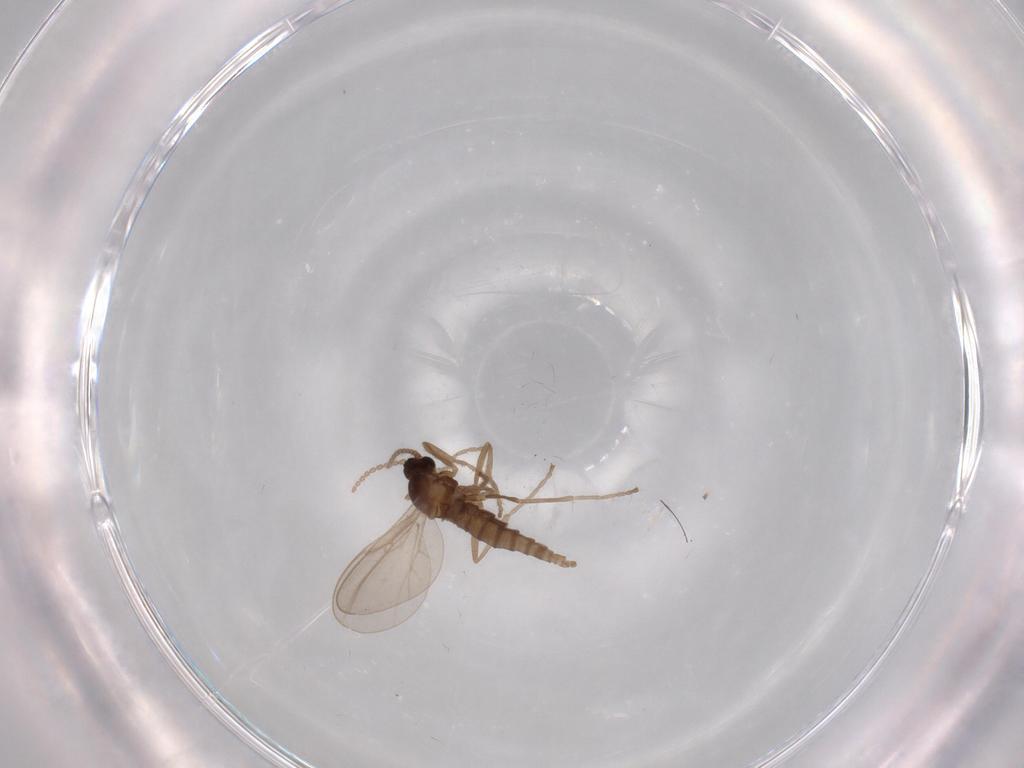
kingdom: Animalia
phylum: Arthropoda
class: Insecta
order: Diptera
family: Cecidomyiidae
